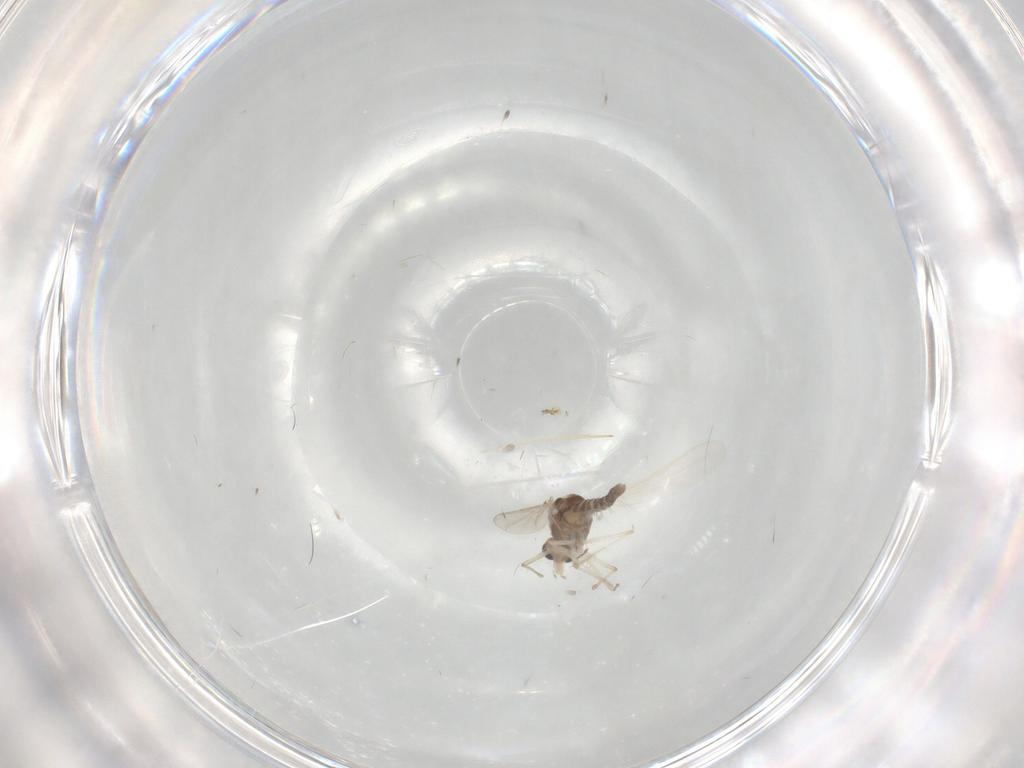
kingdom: Animalia
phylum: Arthropoda
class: Insecta
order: Diptera
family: Chironomidae
